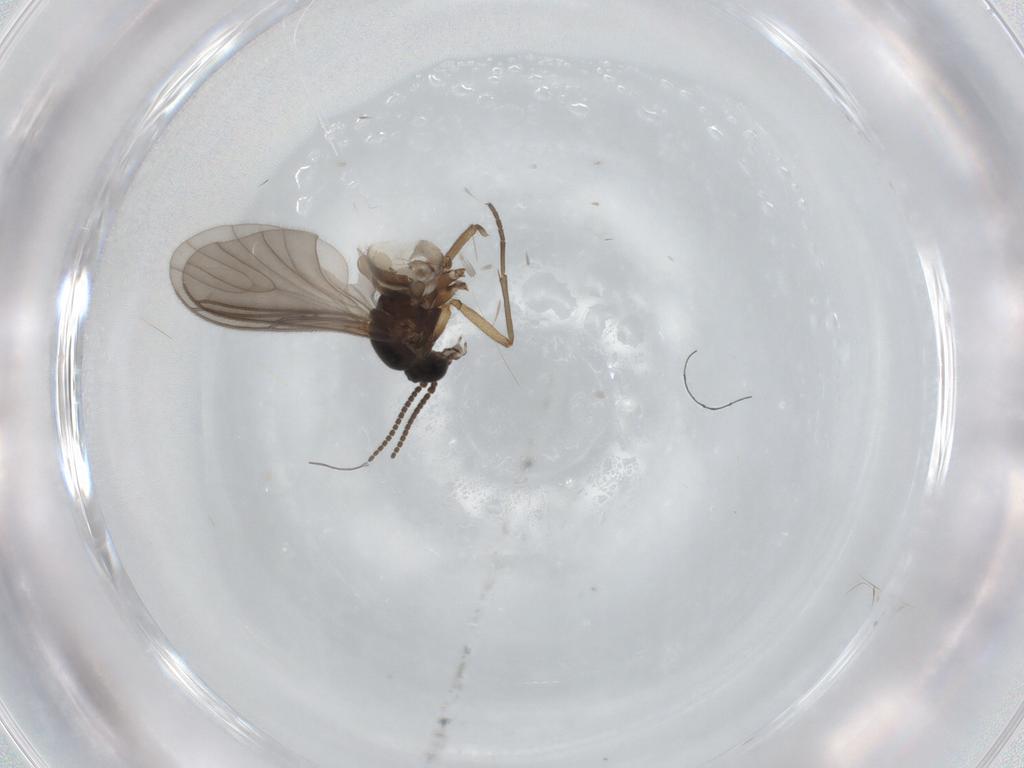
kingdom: Animalia
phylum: Arthropoda
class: Insecta
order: Diptera
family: Sciaridae
